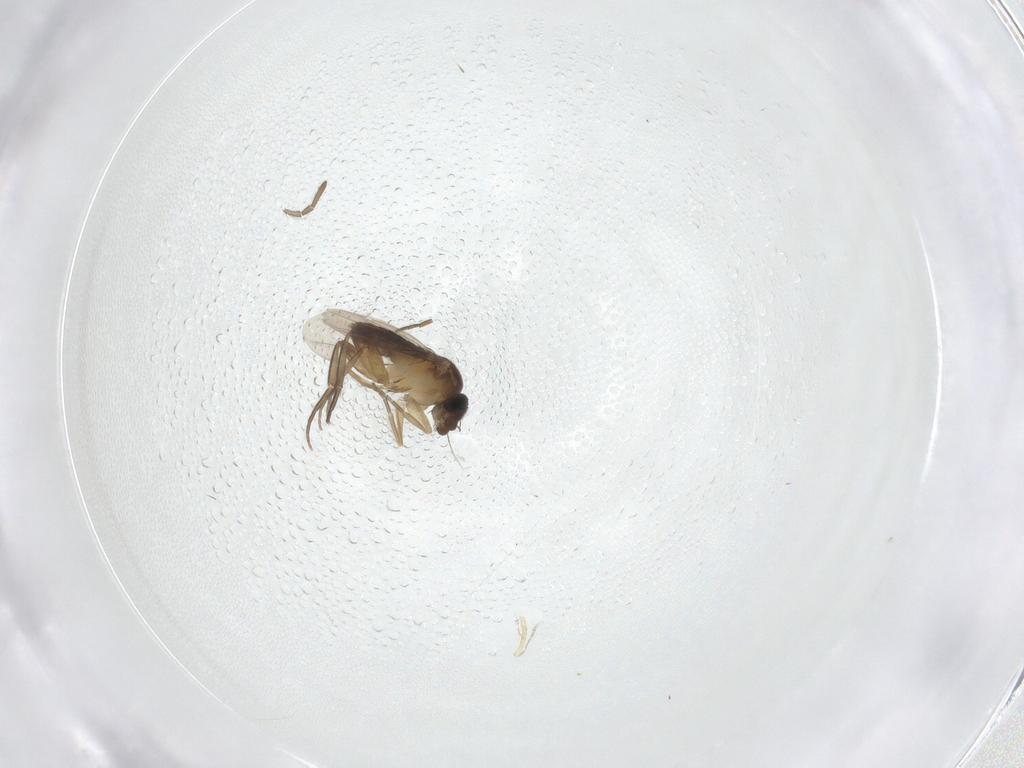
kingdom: Animalia
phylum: Arthropoda
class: Insecta
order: Diptera
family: Phoridae
